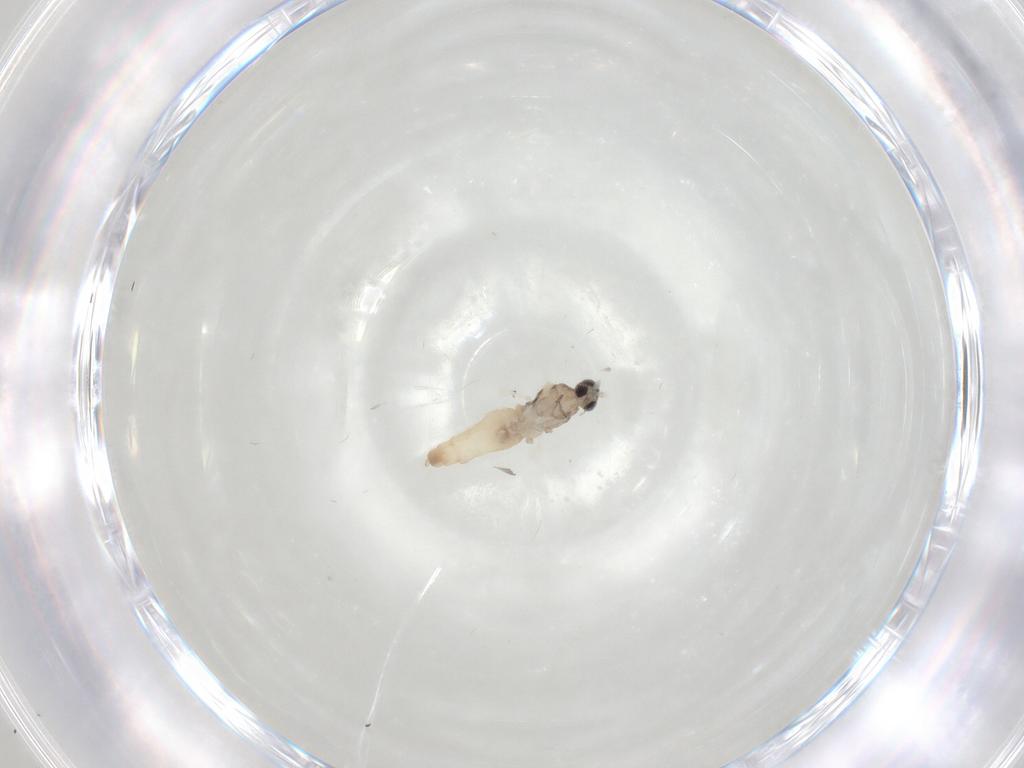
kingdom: Animalia
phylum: Arthropoda
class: Insecta
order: Diptera
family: Cecidomyiidae
